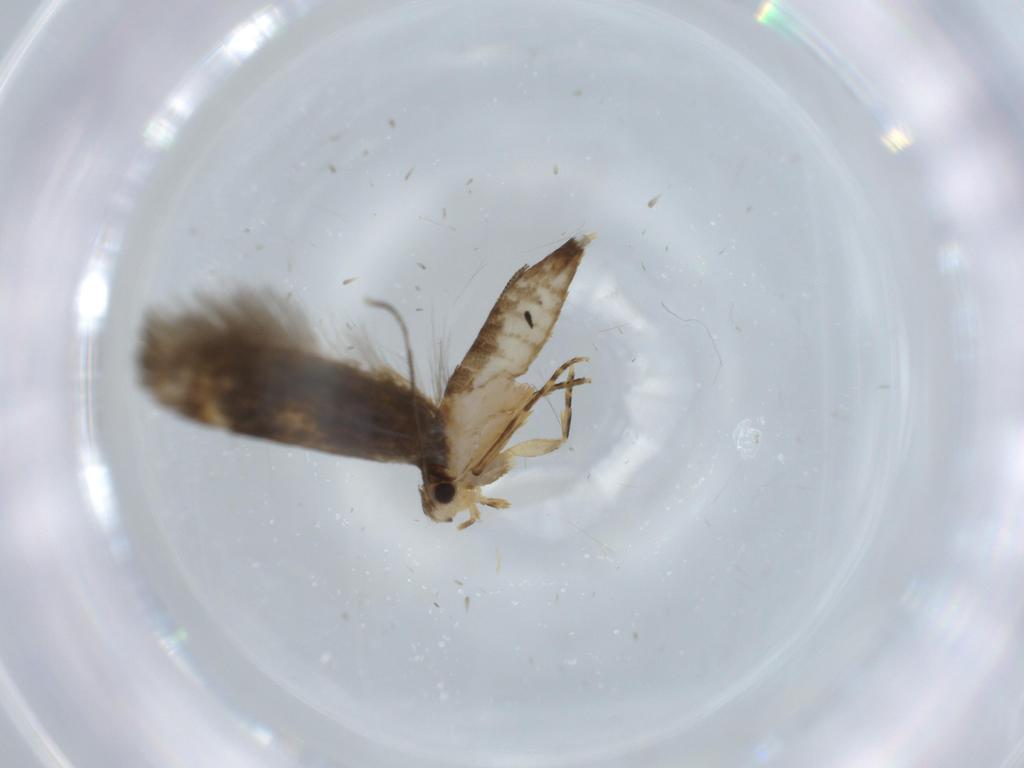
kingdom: Animalia
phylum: Arthropoda
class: Insecta
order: Lepidoptera
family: Tineidae
